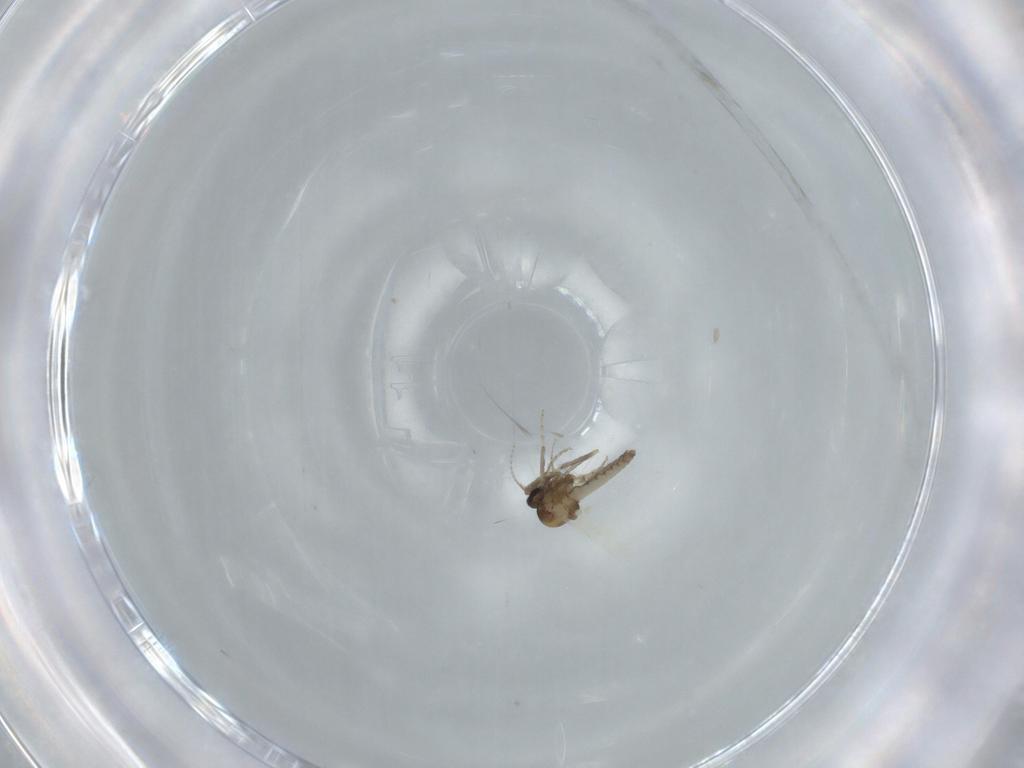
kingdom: Animalia
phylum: Arthropoda
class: Insecta
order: Diptera
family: Ceratopogonidae
